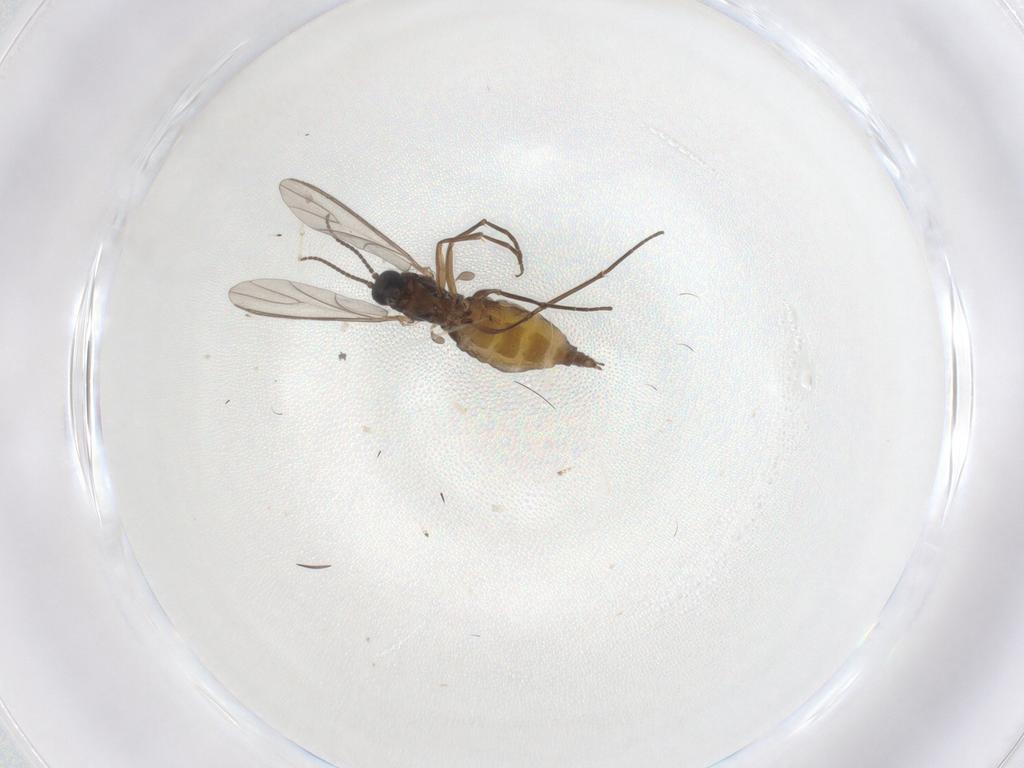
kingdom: Animalia
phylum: Arthropoda
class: Insecta
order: Diptera
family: Sciaridae
